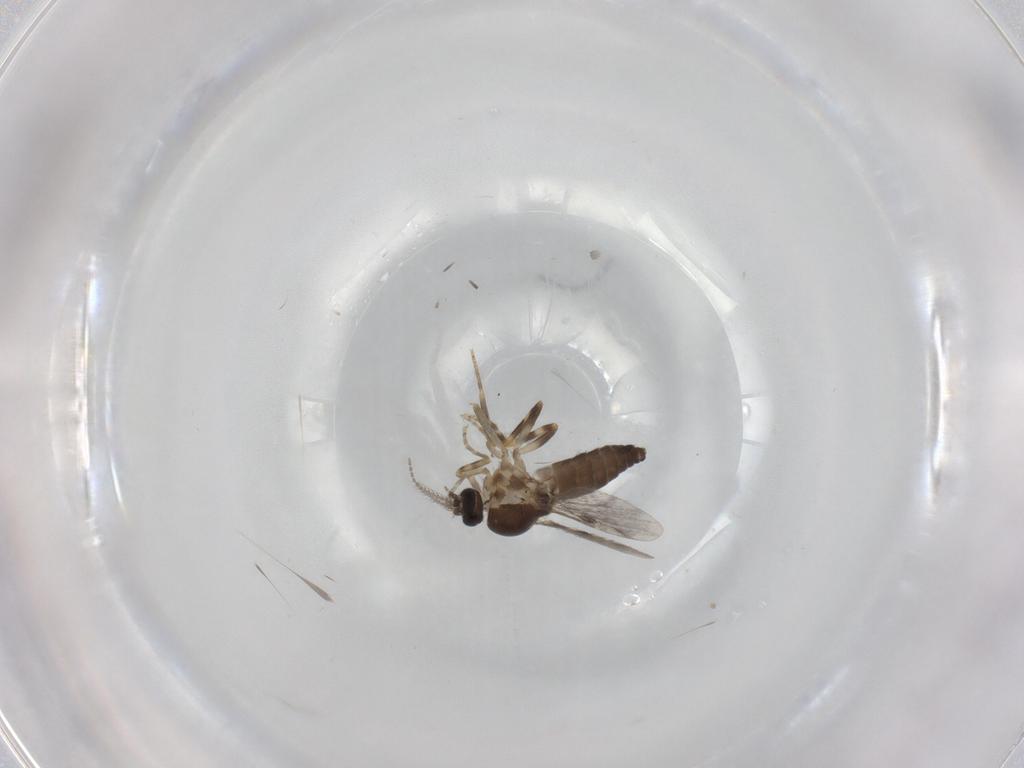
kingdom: Animalia
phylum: Arthropoda
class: Insecta
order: Diptera
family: Ceratopogonidae
